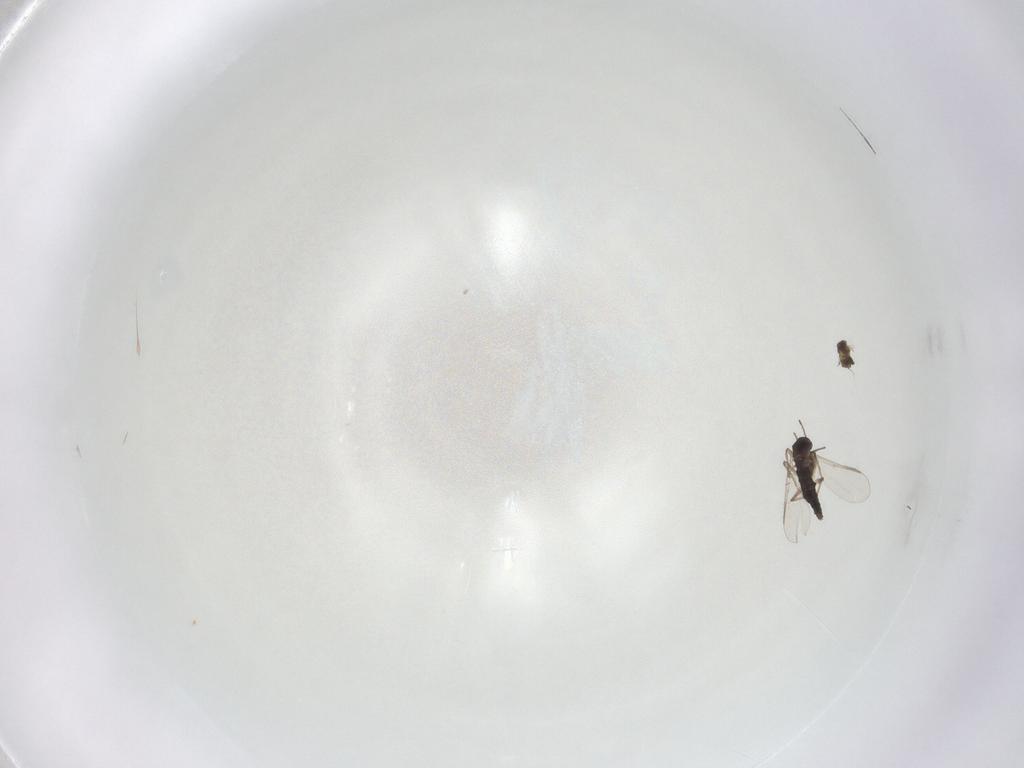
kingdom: Animalia
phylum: Arthropoda
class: Insecta
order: Diptera
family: Chironomidae
